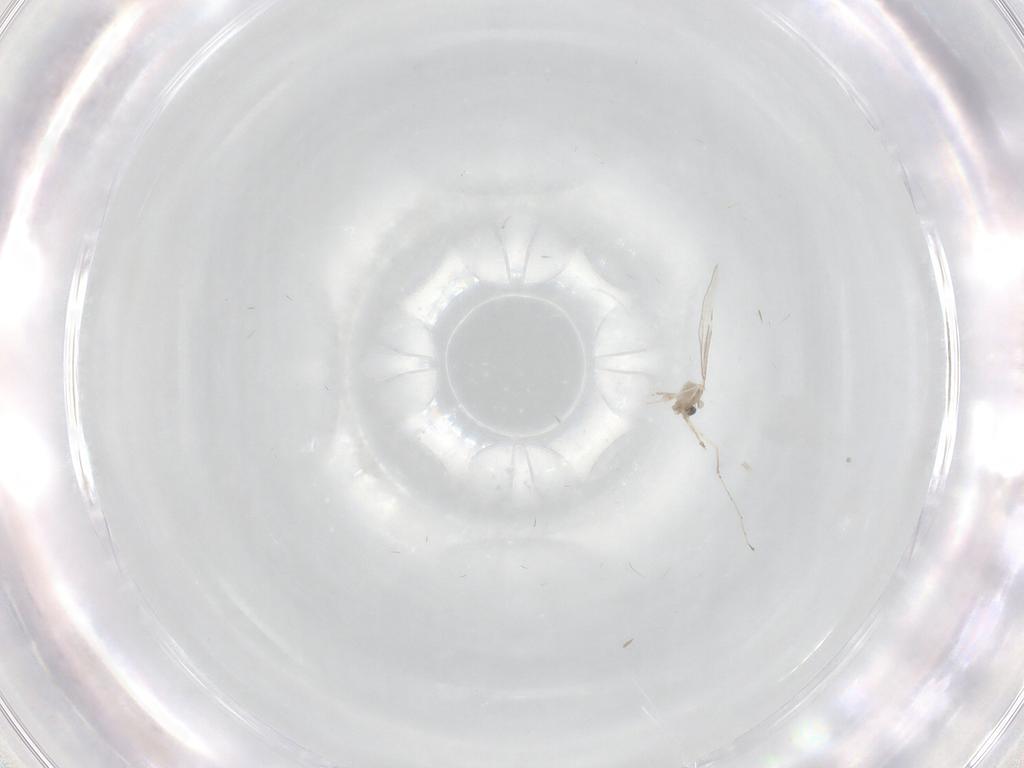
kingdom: Animalia
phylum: Arthropoda
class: Insecta
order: Diptera
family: Cecidomyiidae
